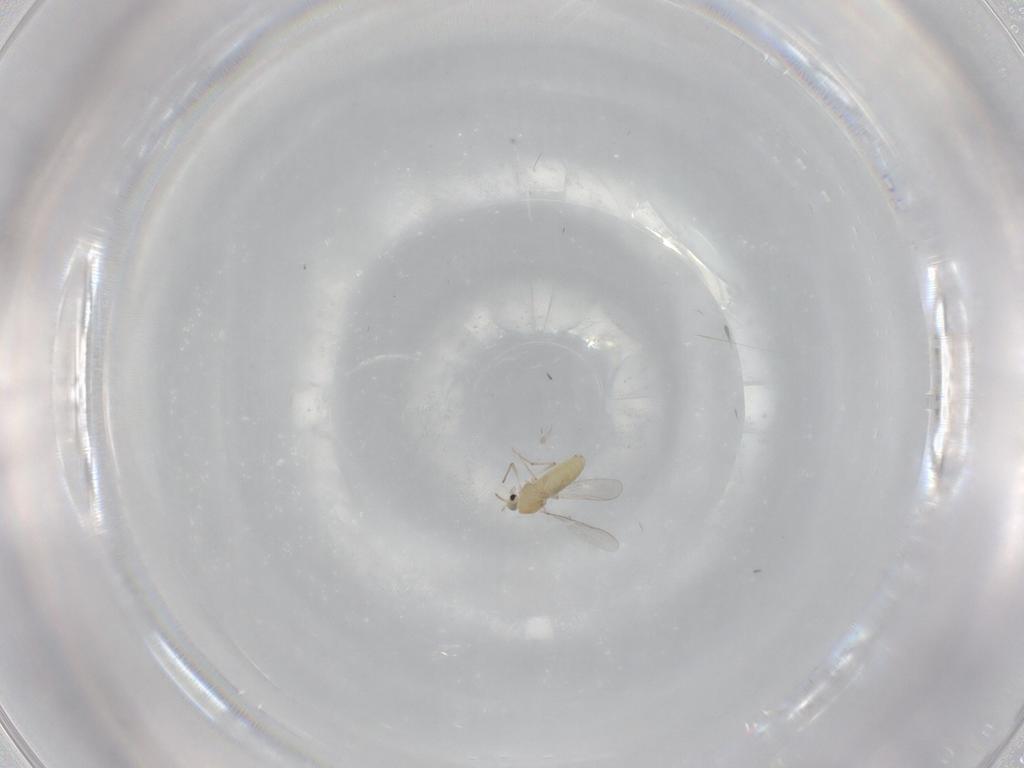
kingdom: Animalia
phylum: Arthropoda
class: Insecta
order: Diptera
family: Chironomidae
